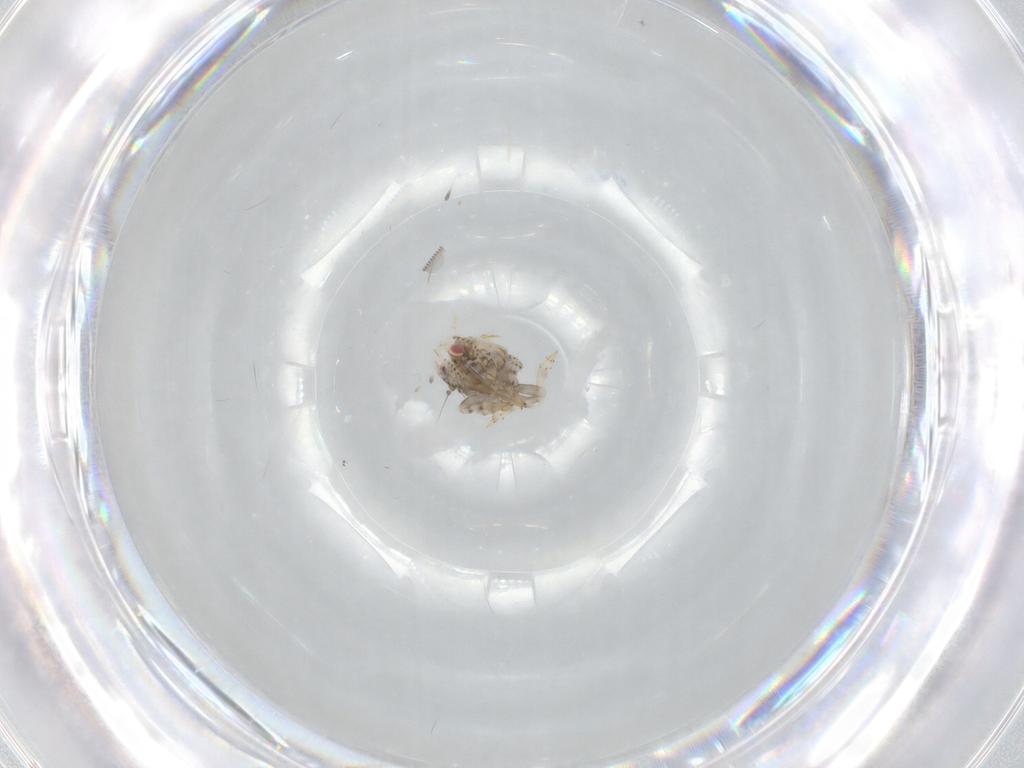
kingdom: Animalia
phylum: Arthropoda
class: Insecta
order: Hemiptera
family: Acanaloniidae
